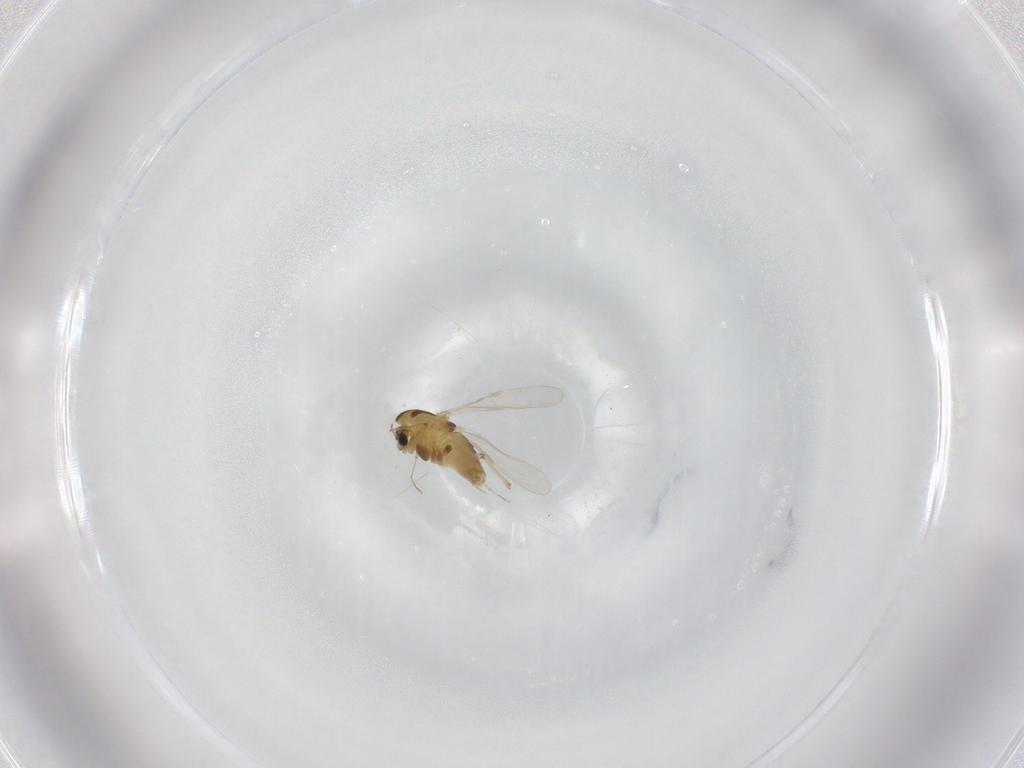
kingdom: Animalia
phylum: Arthropoda
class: Insecta
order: Diptera
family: Chironomidae
